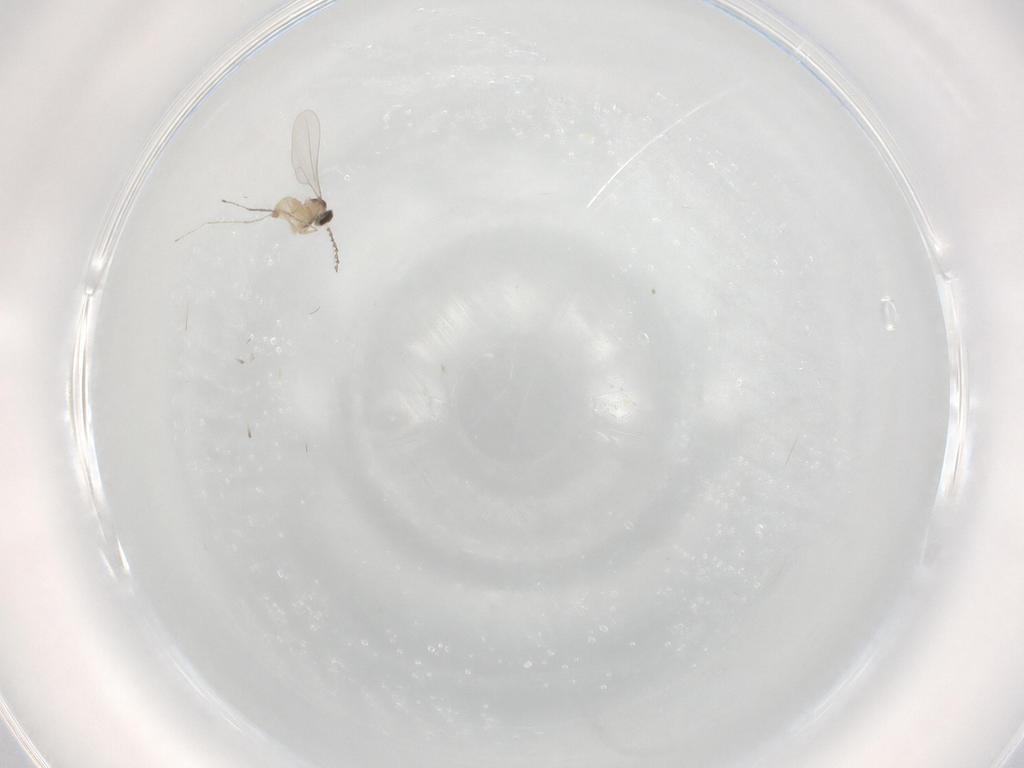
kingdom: Animalia
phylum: Arthropoda
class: Insecta
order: Diptera
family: Cecidomyiidae
